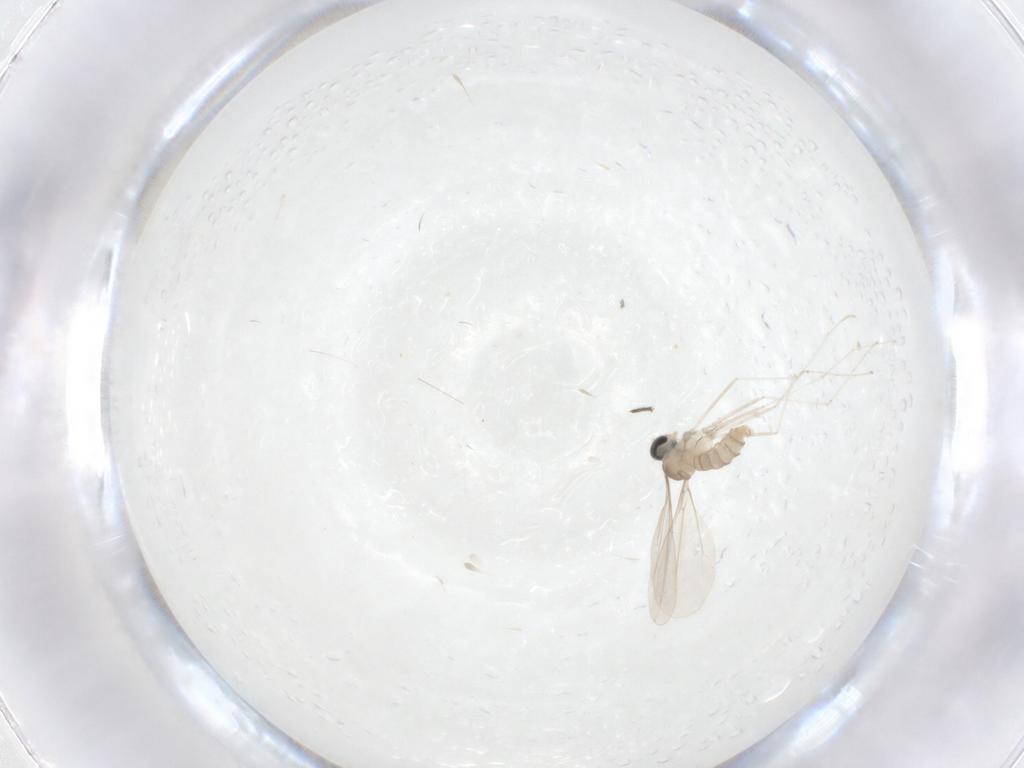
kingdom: Animalia
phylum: Arthropoda
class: Insecta
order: Diptera
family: Cecidomyiidae
